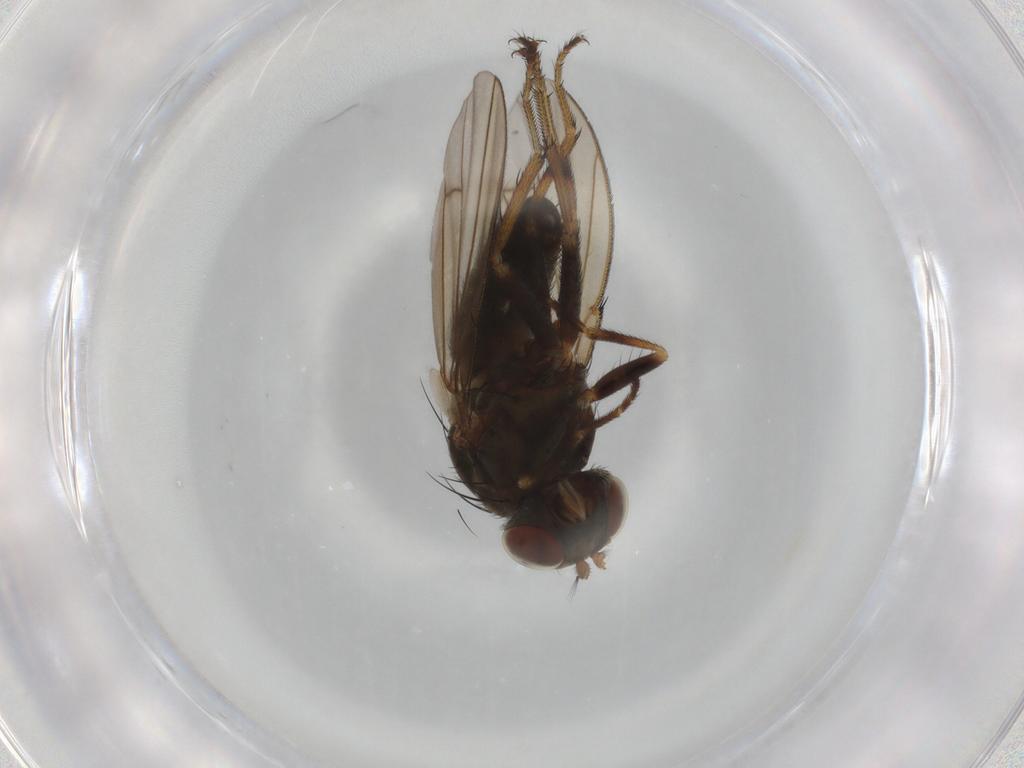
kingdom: Animalia
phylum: Arthropoda
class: Insecta
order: Diptera
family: Ephydridae
